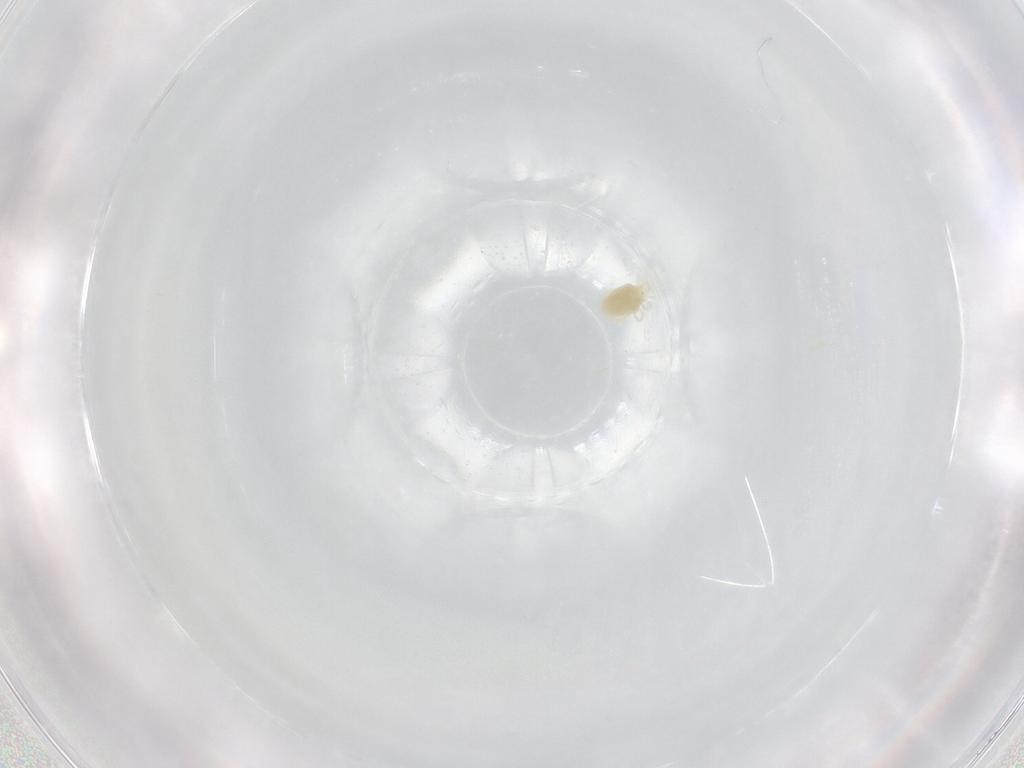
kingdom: Animalia
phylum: Arthropoda
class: Arachnida
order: Trombidiformes
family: Eupodidae
